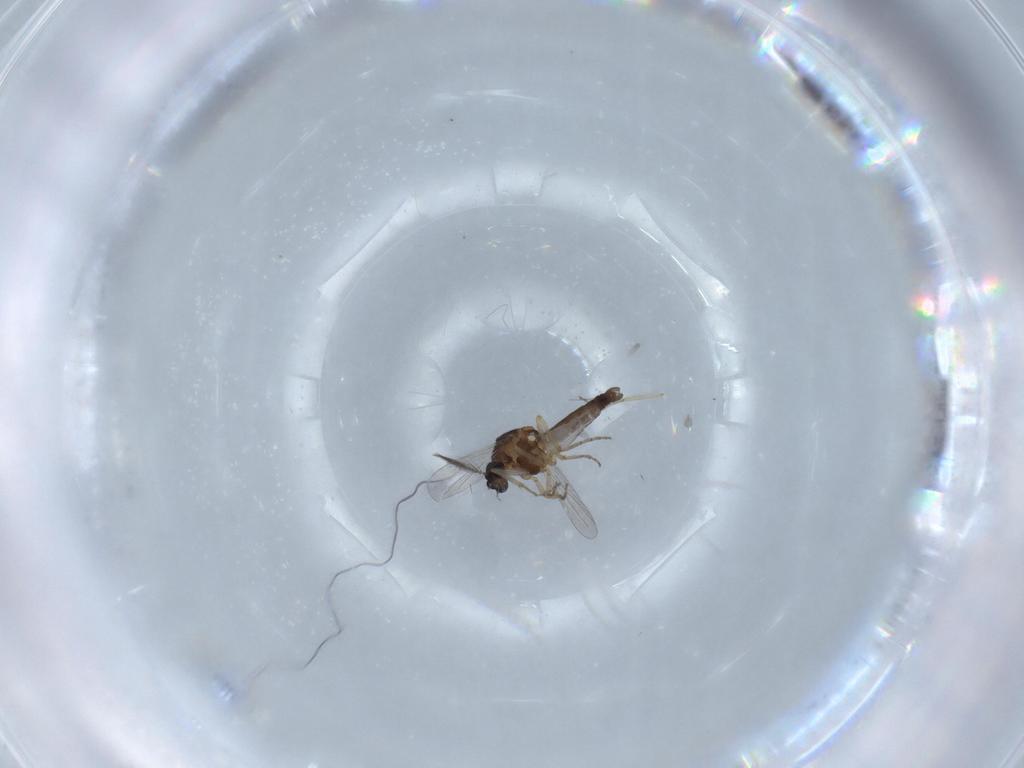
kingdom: Animalia
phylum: Arthropoda
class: Insecta
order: Diptera
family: Ceratopogonidae
